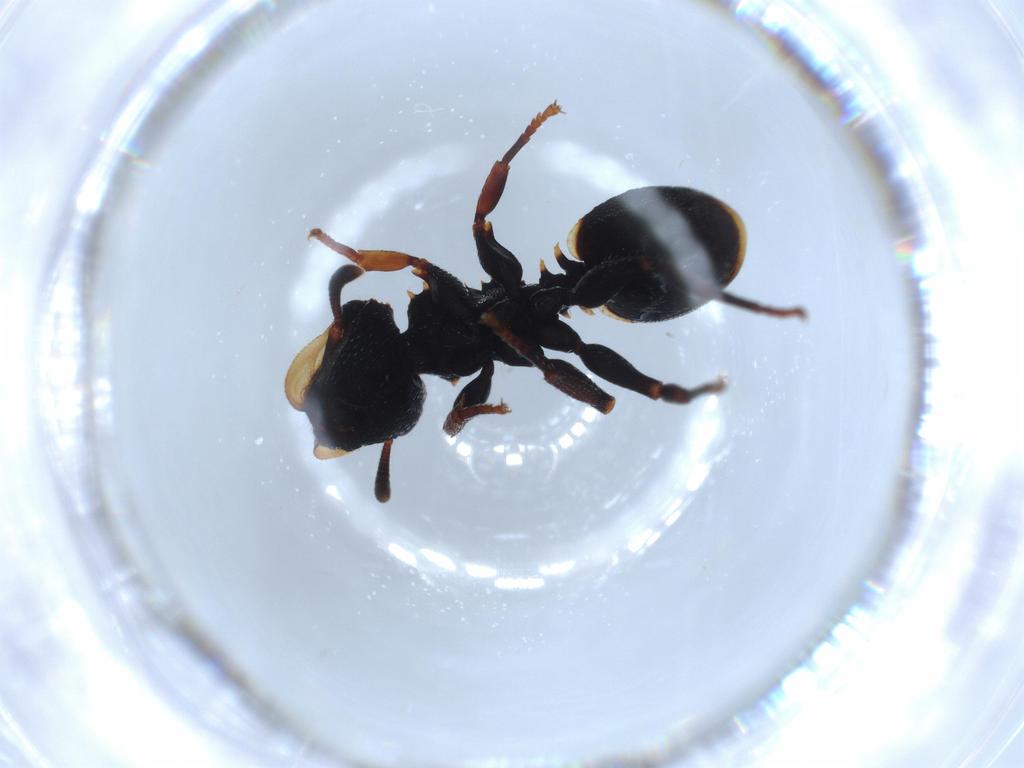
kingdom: Animalia
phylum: Arthropoda
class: Insecta
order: Hymenoptera
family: Formicidae
